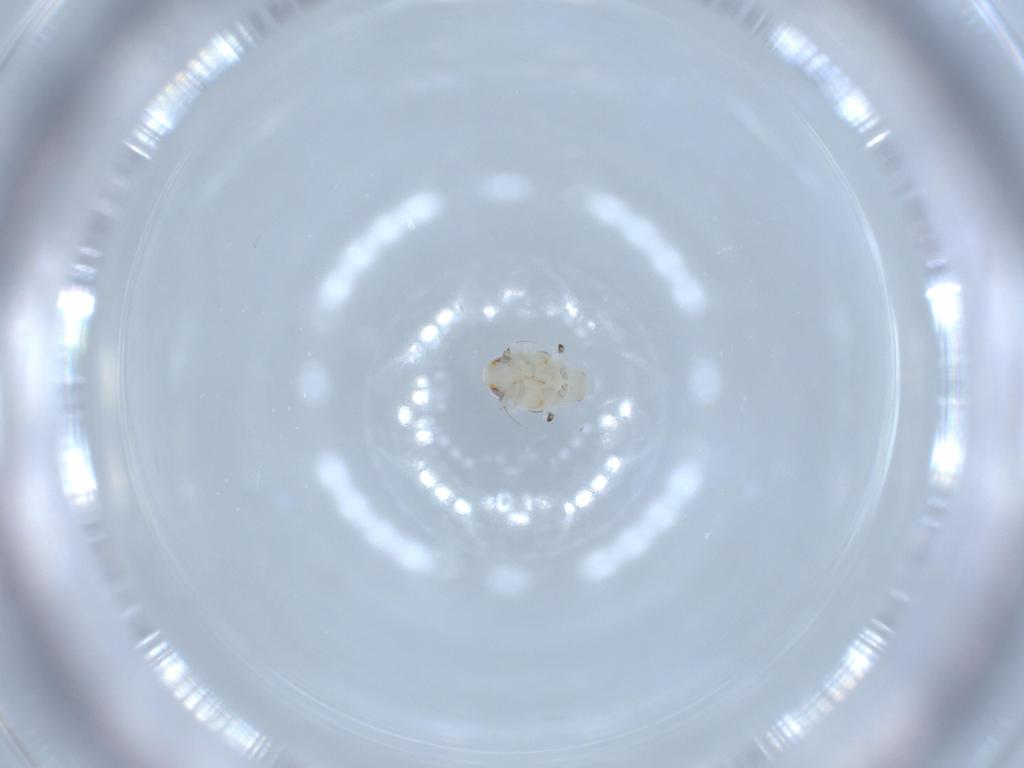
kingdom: Animalia
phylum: Arthropoda
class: Insecta
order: Hemiptera
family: Nogodinidae
